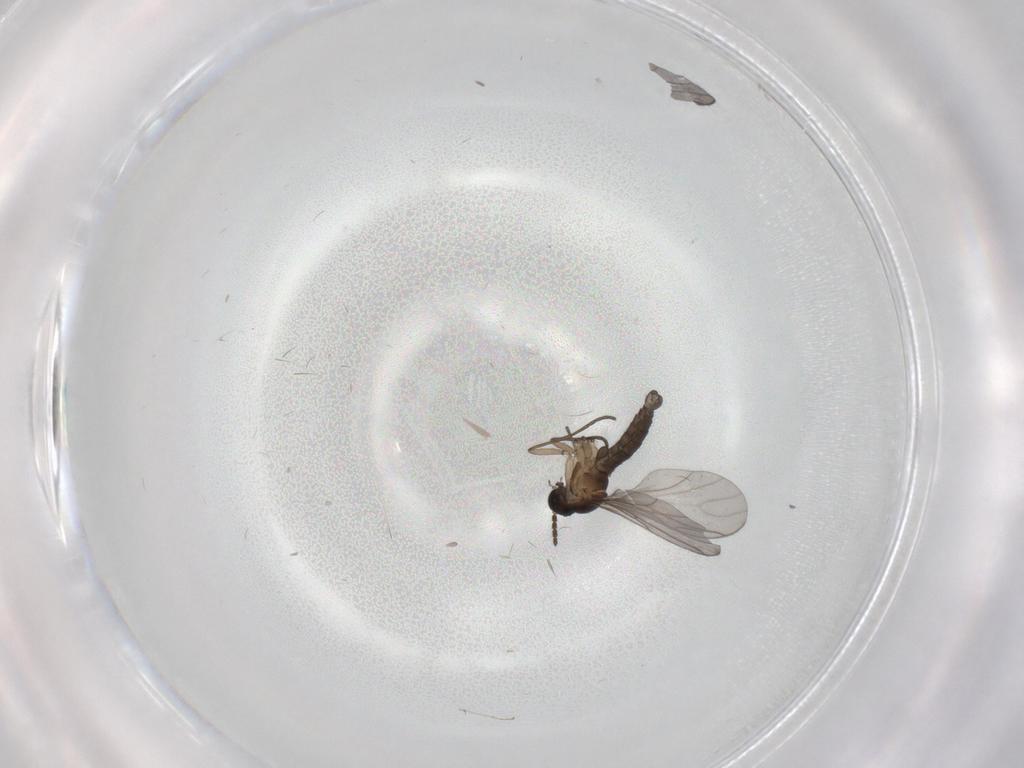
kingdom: Animalia
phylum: Arthropoda
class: Insecta
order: Diptera
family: Sciaridae
